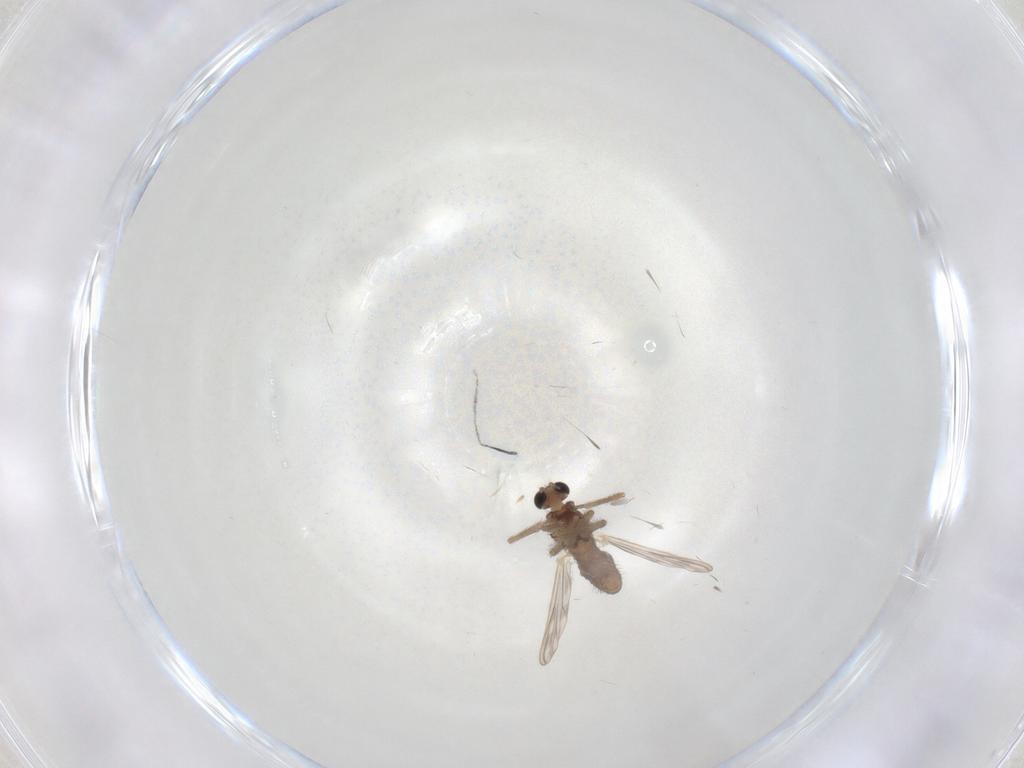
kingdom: Animalia
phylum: Arthropoda
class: Insecta
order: Diptera
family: Chironomidae
